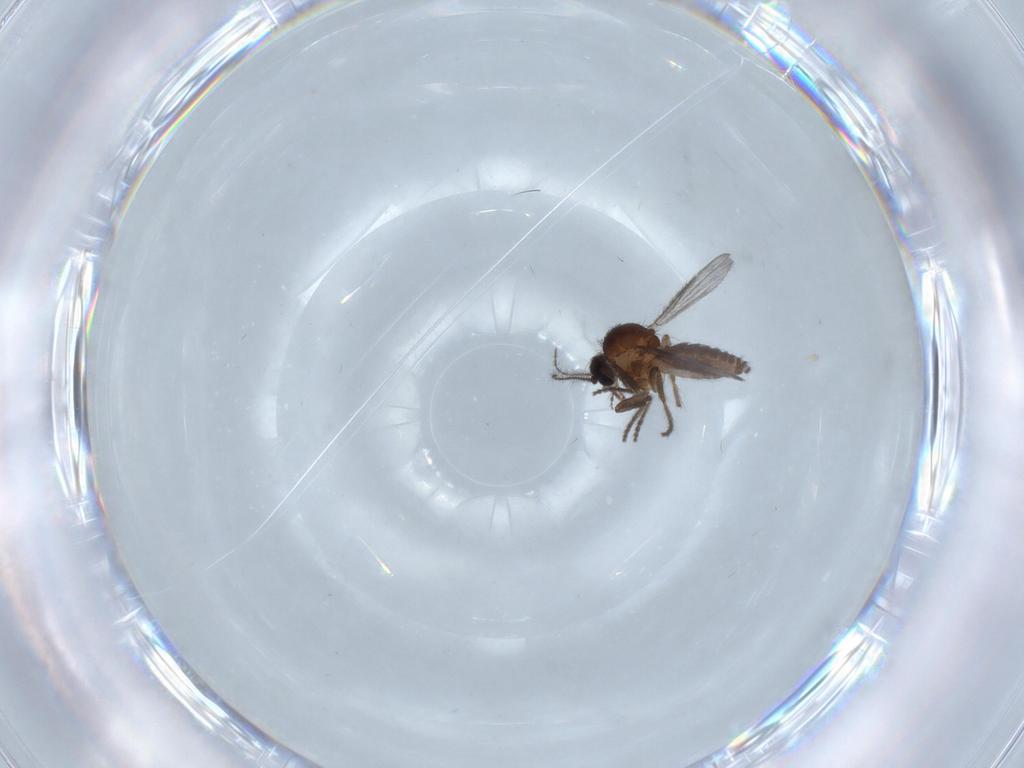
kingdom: Animalia
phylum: Arthropoda
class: Insecta
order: Diptera
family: Ceratopogonidae
